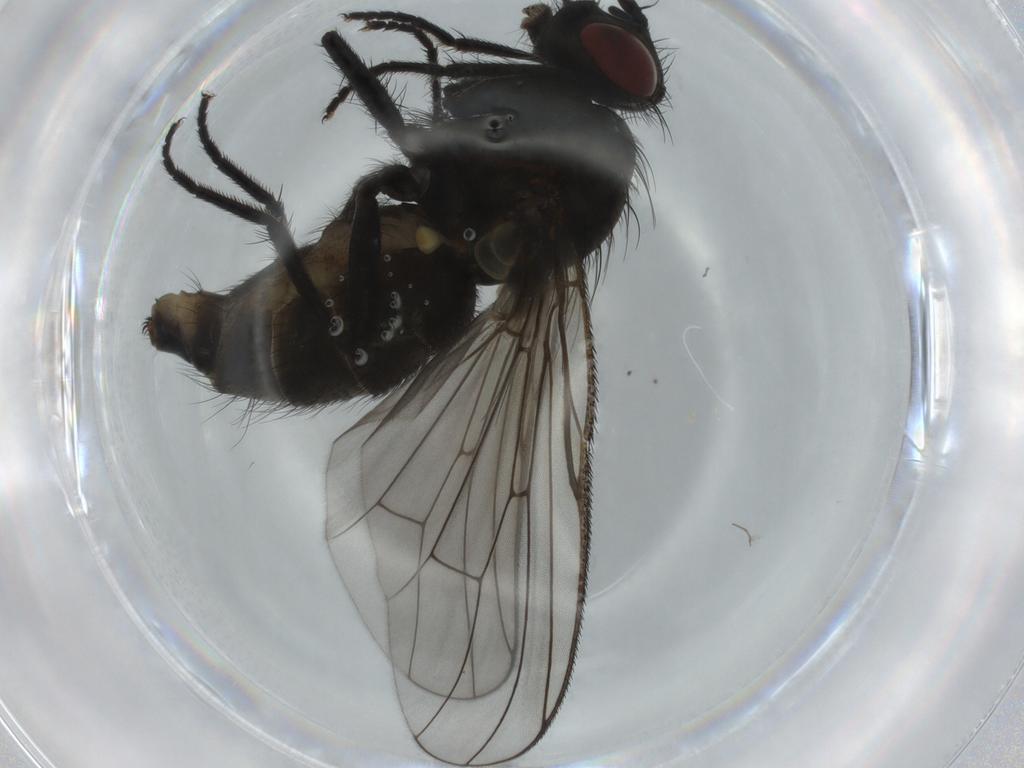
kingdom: Animalia
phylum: Arthropoda
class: Insecta
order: Diptera
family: Muscidae
